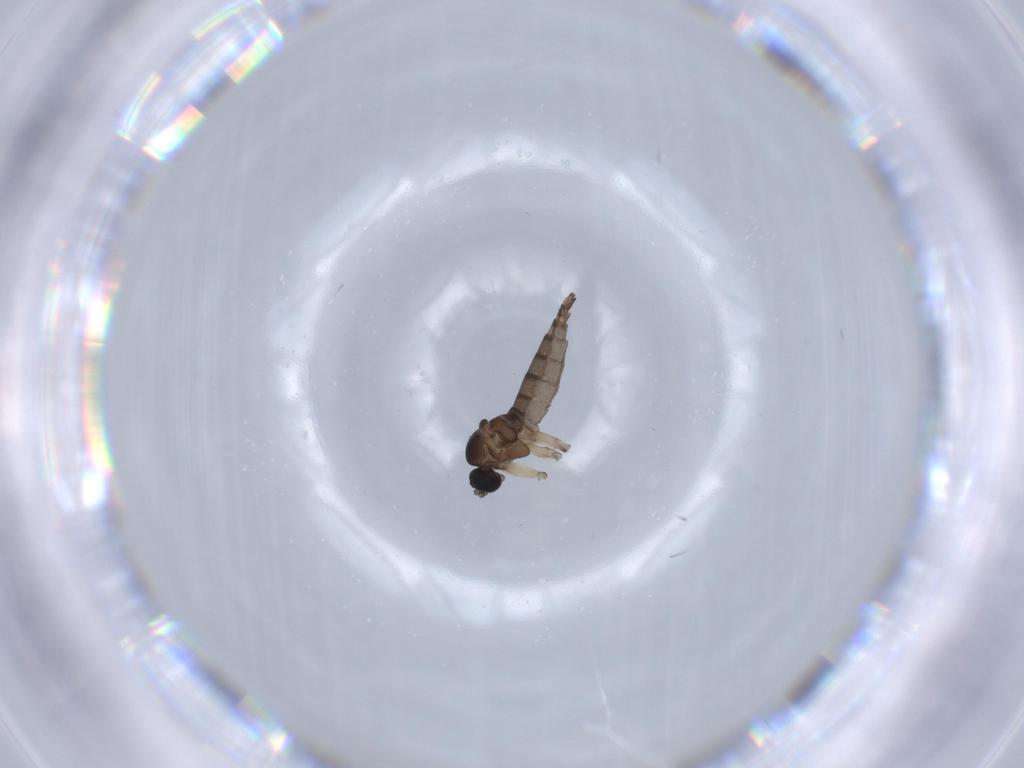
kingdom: Animalia
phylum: Arthropoda
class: Insecta
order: Diptera
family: Sciaridae
